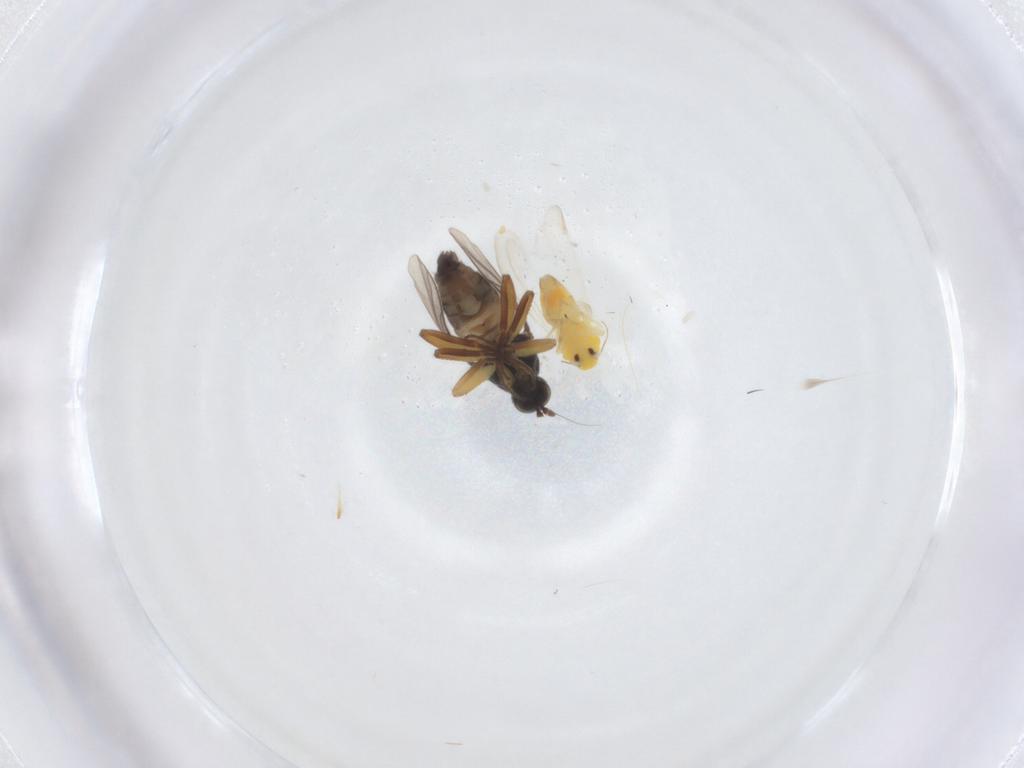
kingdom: Animalia
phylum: Arthropoda
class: Insecta
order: Diptera
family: Hybotidae
